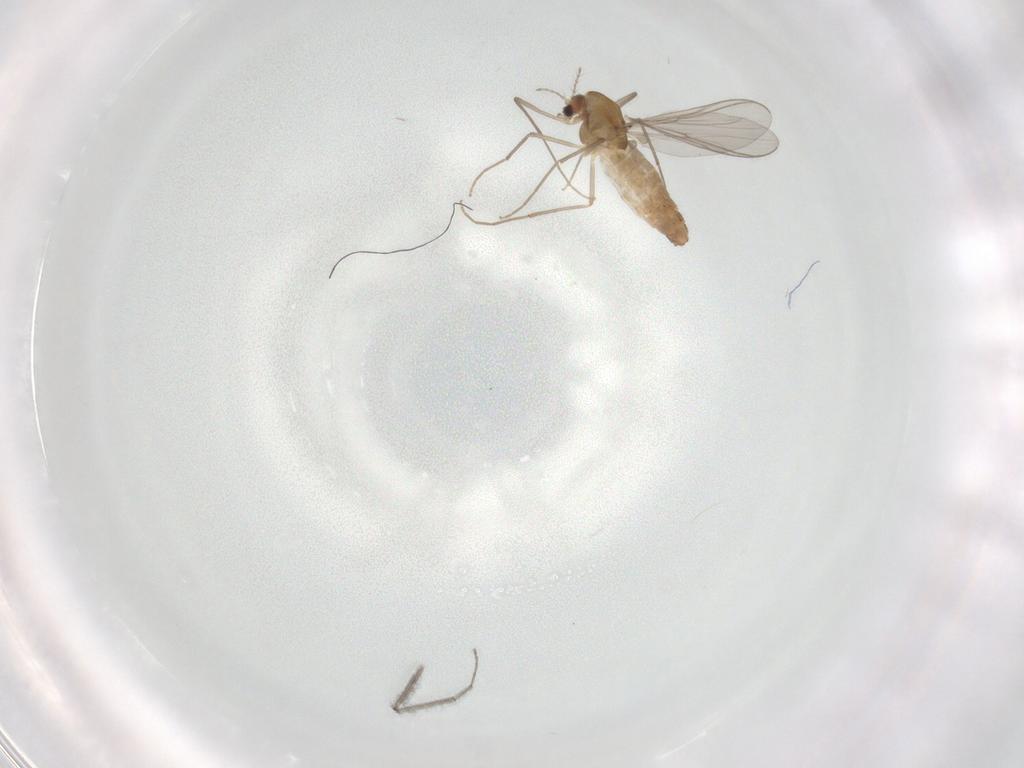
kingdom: Animalia
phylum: Arthropoda
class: Insecta
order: Diptera
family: Chironomidae
